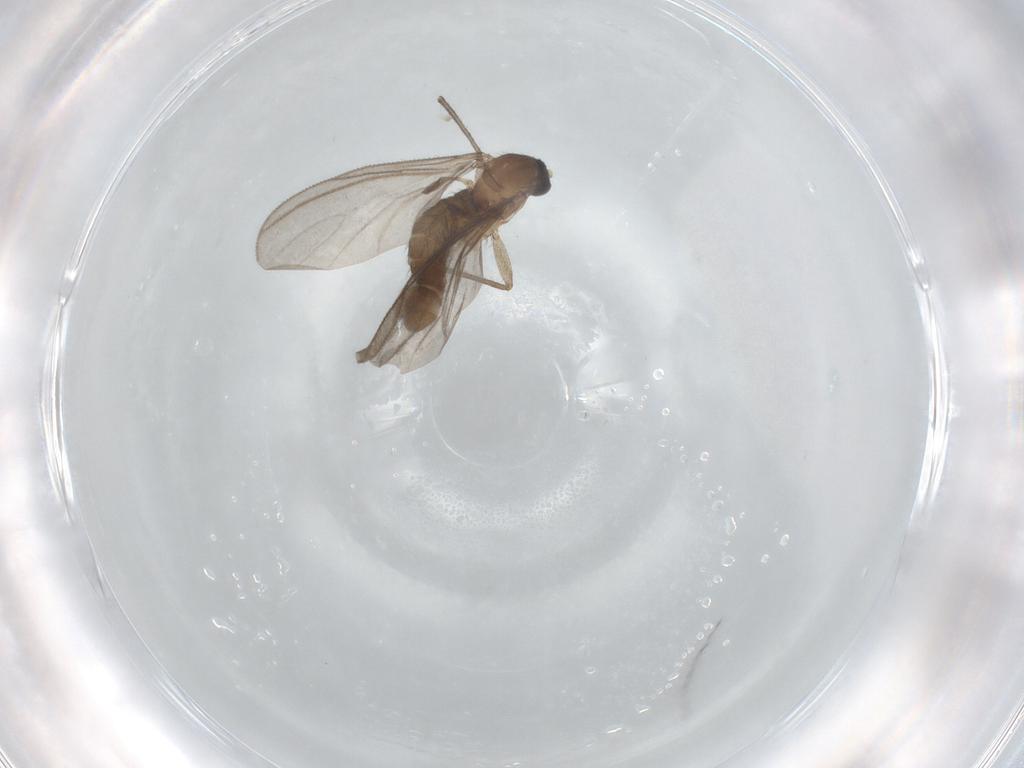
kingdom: Animalia
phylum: Arthropoda
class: Insecta
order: Diptera
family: Sciaridae
